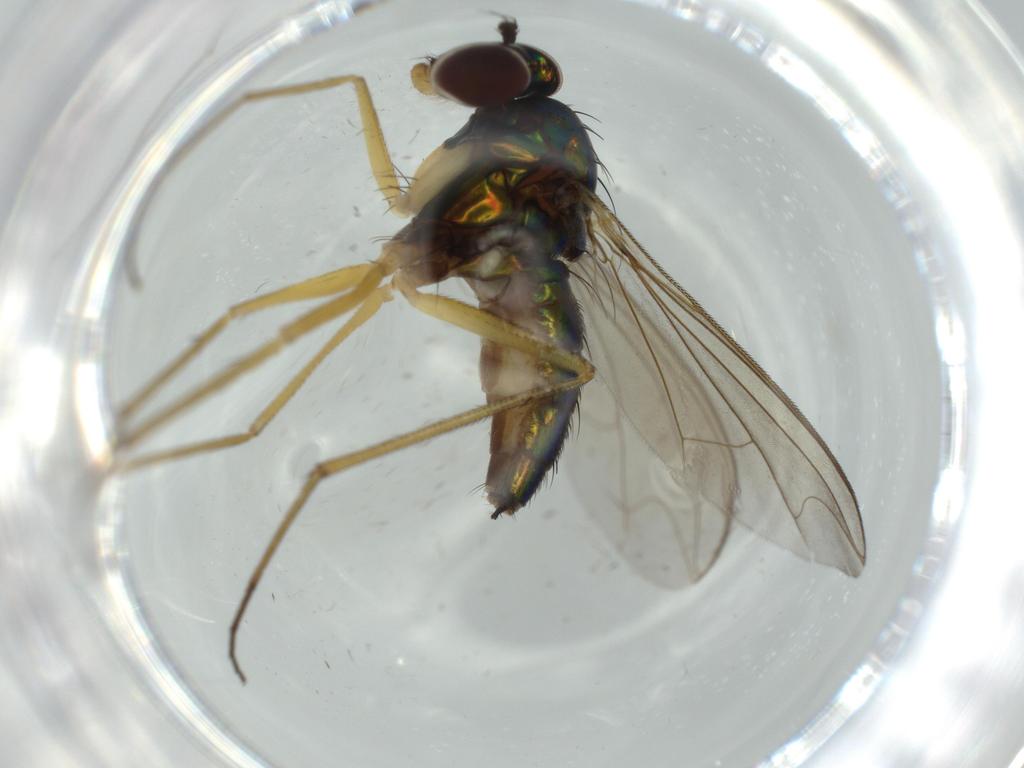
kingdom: Animalia
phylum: Arthropoda
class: Insecta
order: Diptera
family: Dolichopodidae
